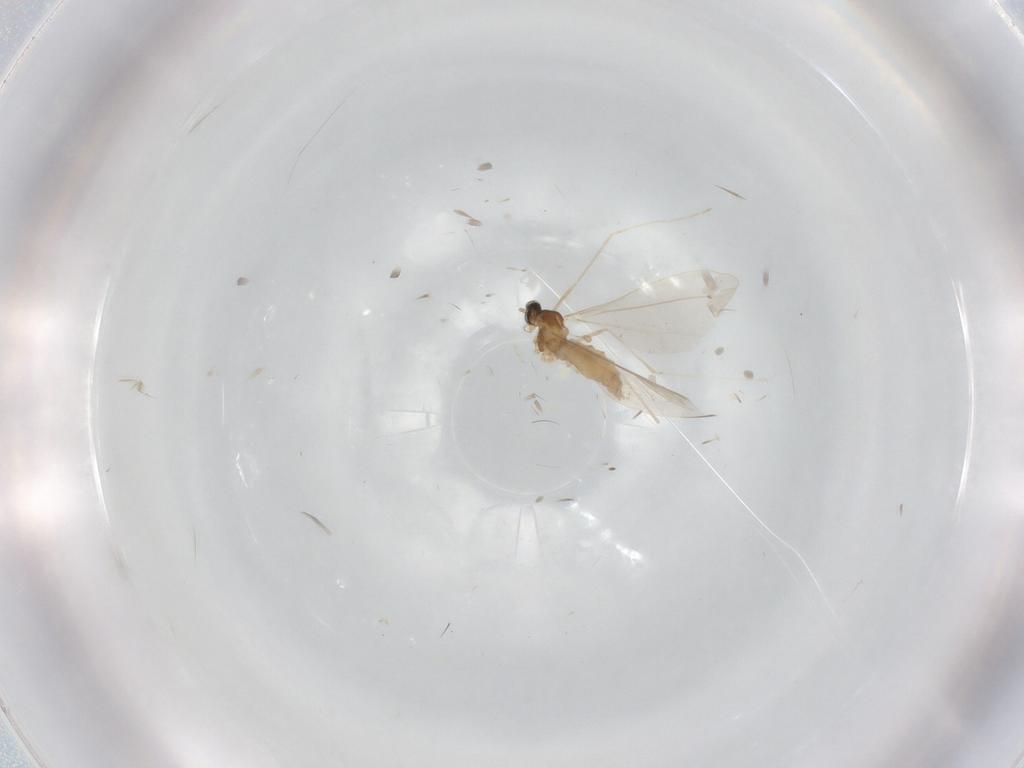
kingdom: Animalia
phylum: Arthropoda
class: Insecta
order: Diptera
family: Cecidomyiidae
